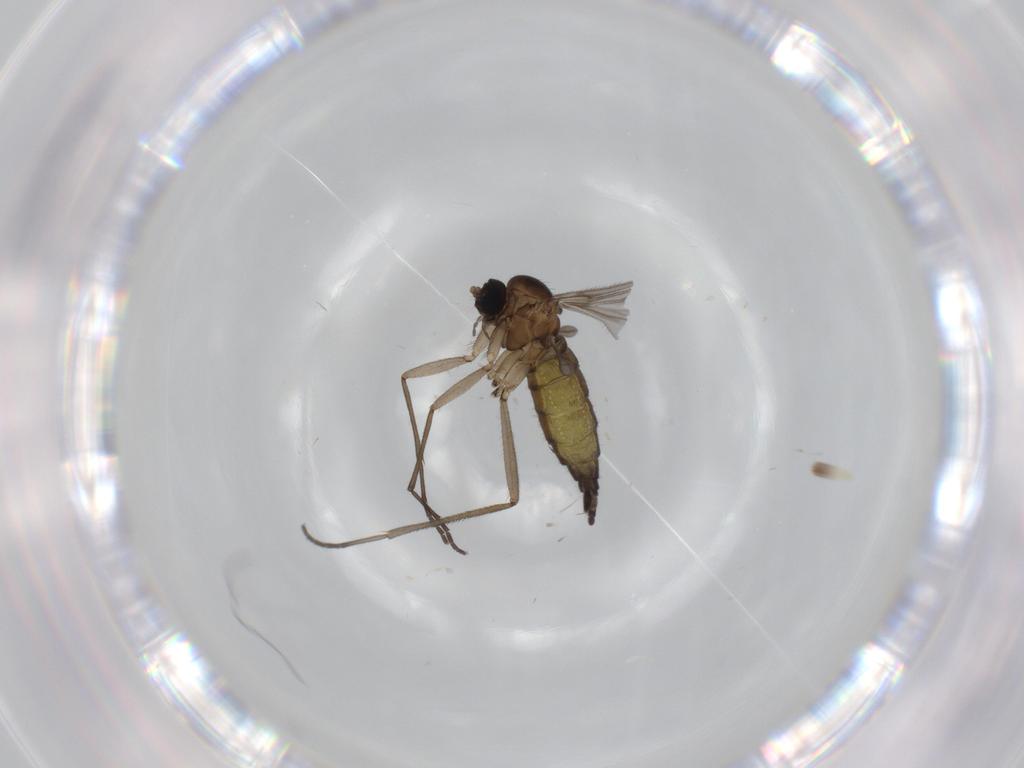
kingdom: Animalia
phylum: Arthropoda
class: Insecta
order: Diptera
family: Sciaridae
